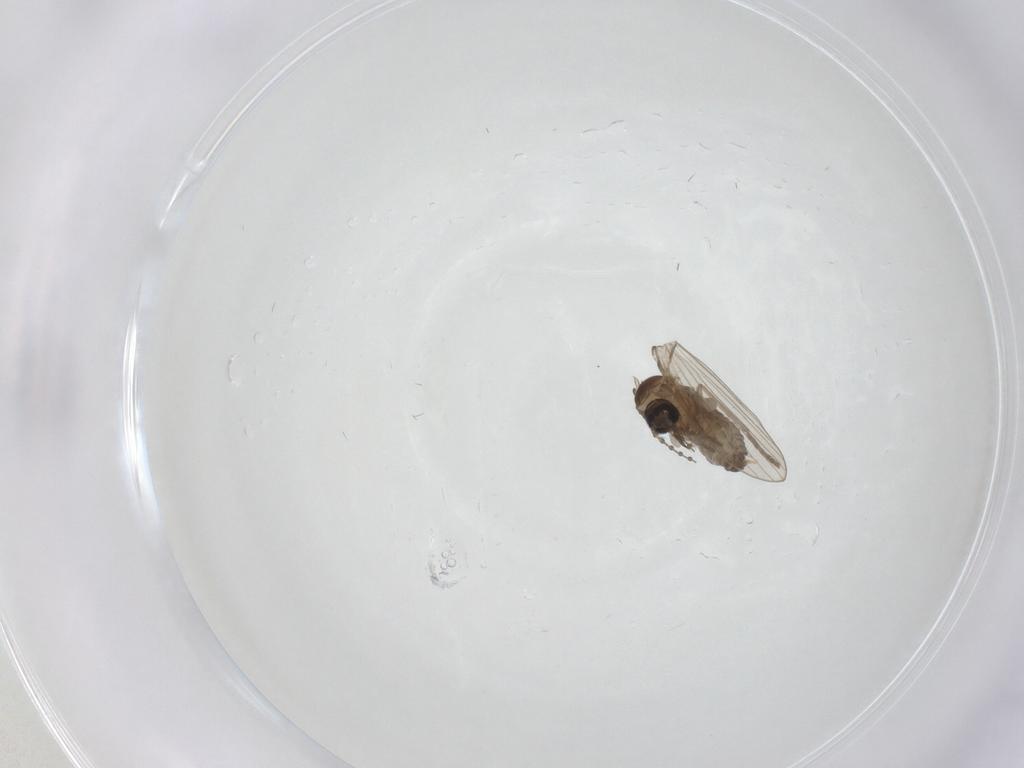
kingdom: Animalia
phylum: Arthropoda
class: Insecta
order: Diptera
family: Psychodidae
